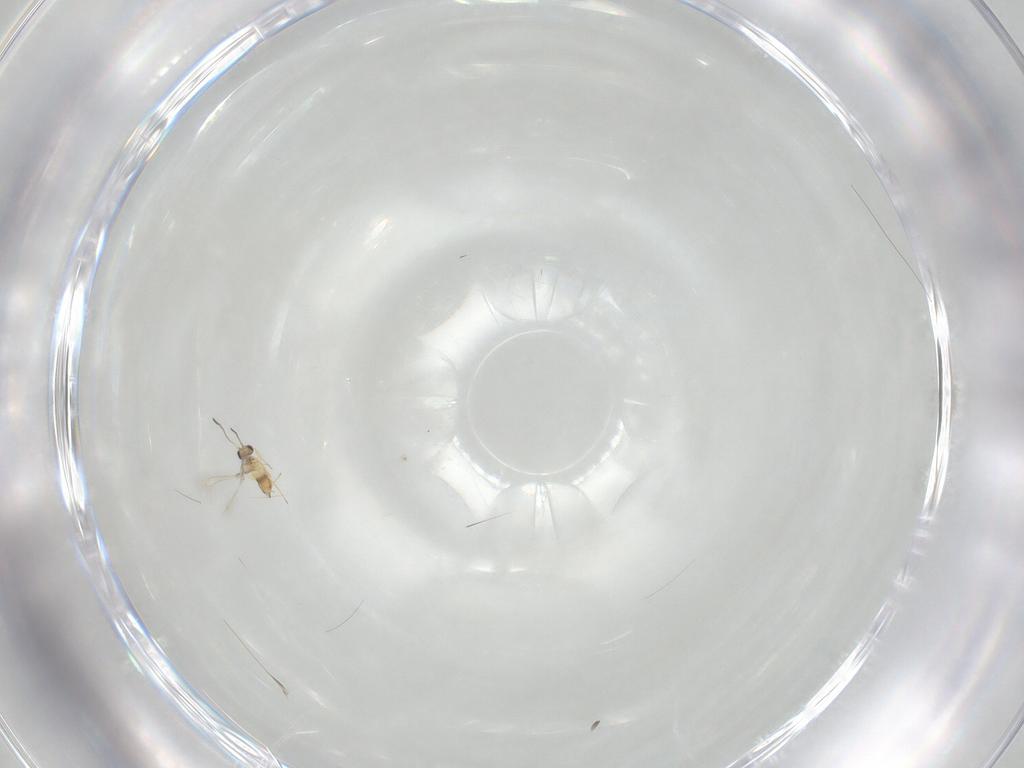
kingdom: Animalia
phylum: Arthropoda
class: Insecta
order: Hymenoptera
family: Mymaridae
